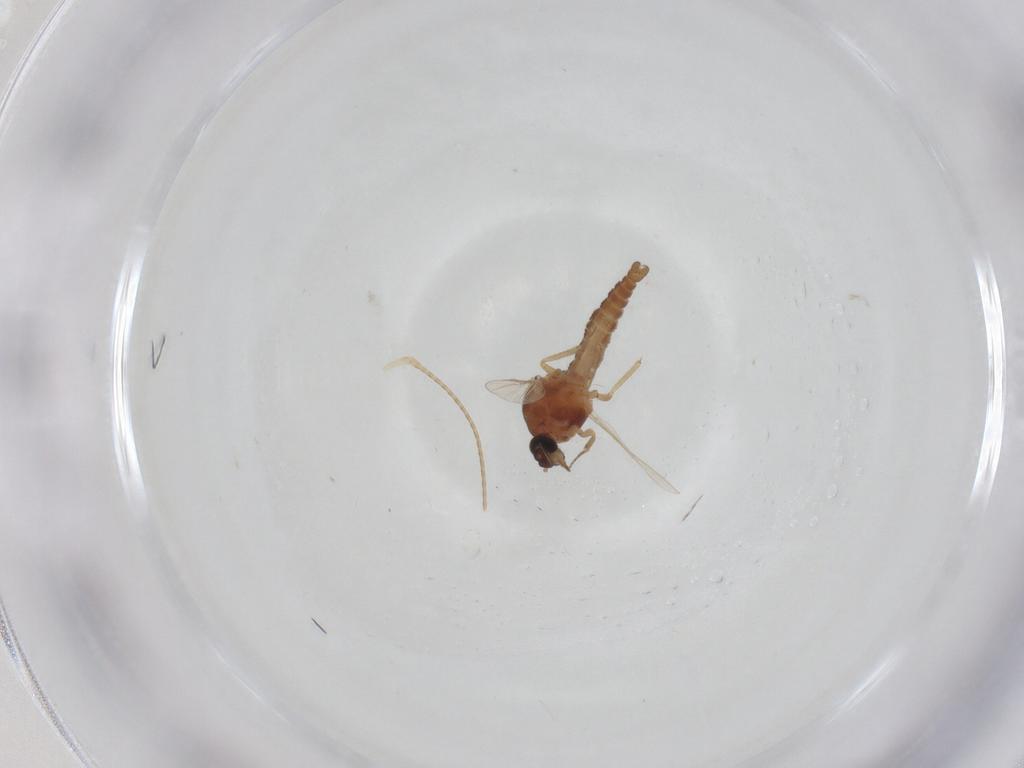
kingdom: Animalia
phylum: Arthropoda
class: Insecta
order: Diptera
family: Ceratopogonidae
